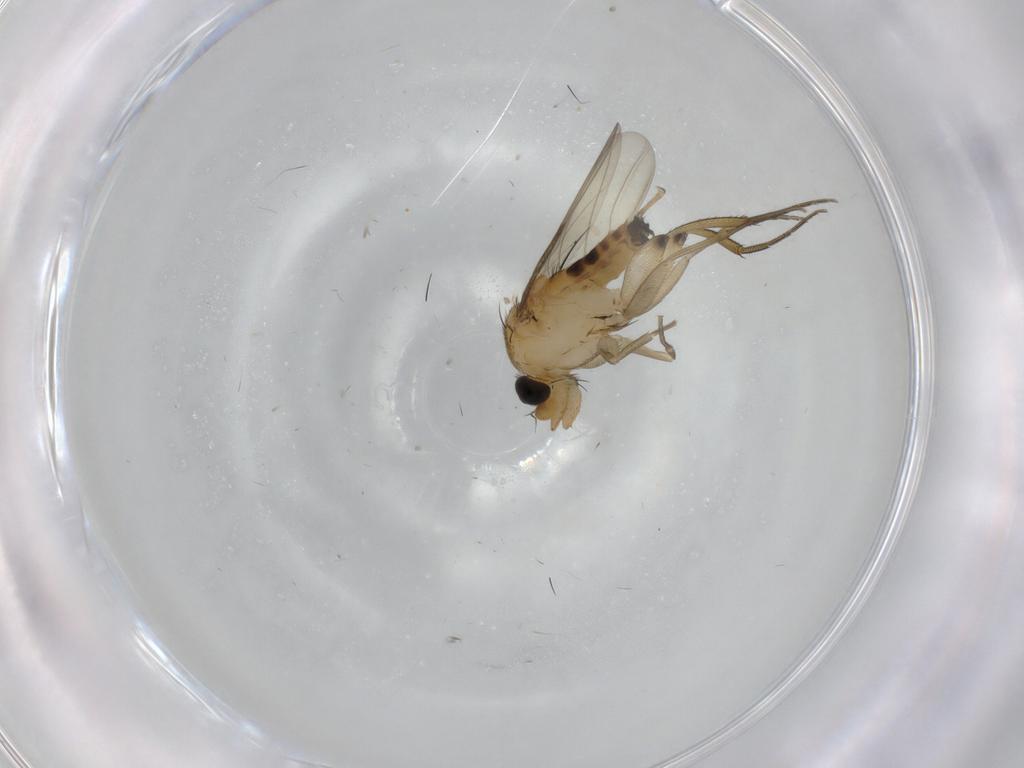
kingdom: Animalia
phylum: Arthropoda
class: Insecta
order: Diptera
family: Phoridae
